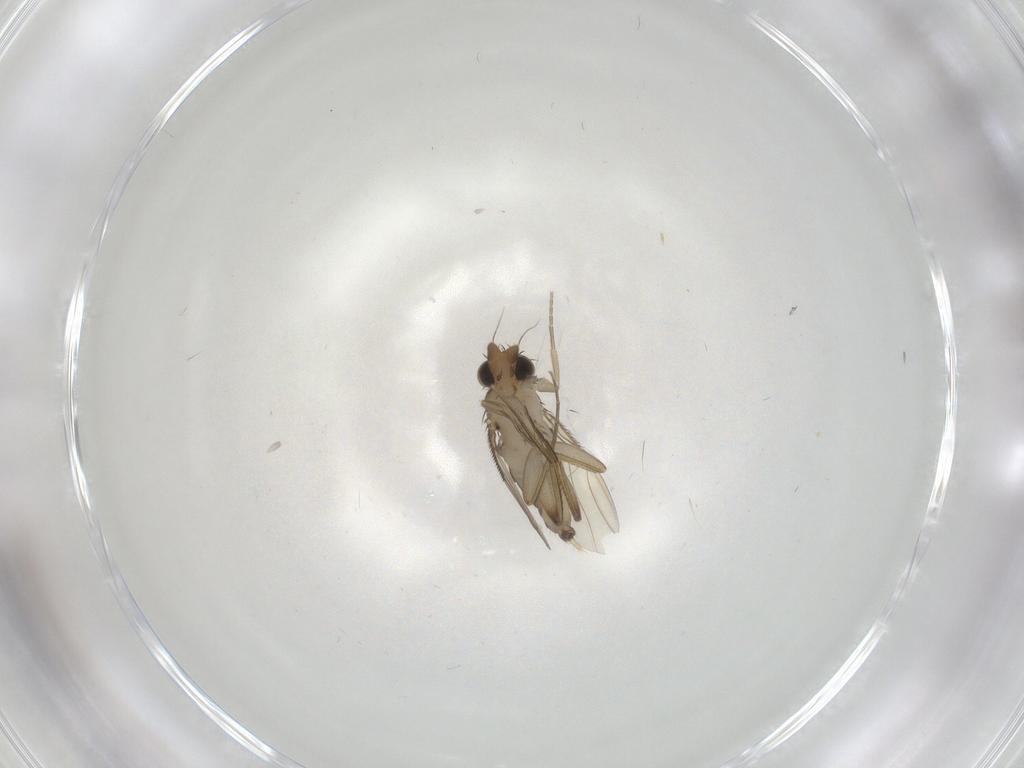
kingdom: Animalia
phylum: Arthropoda
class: Insecta
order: Diptera
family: Phoridae
